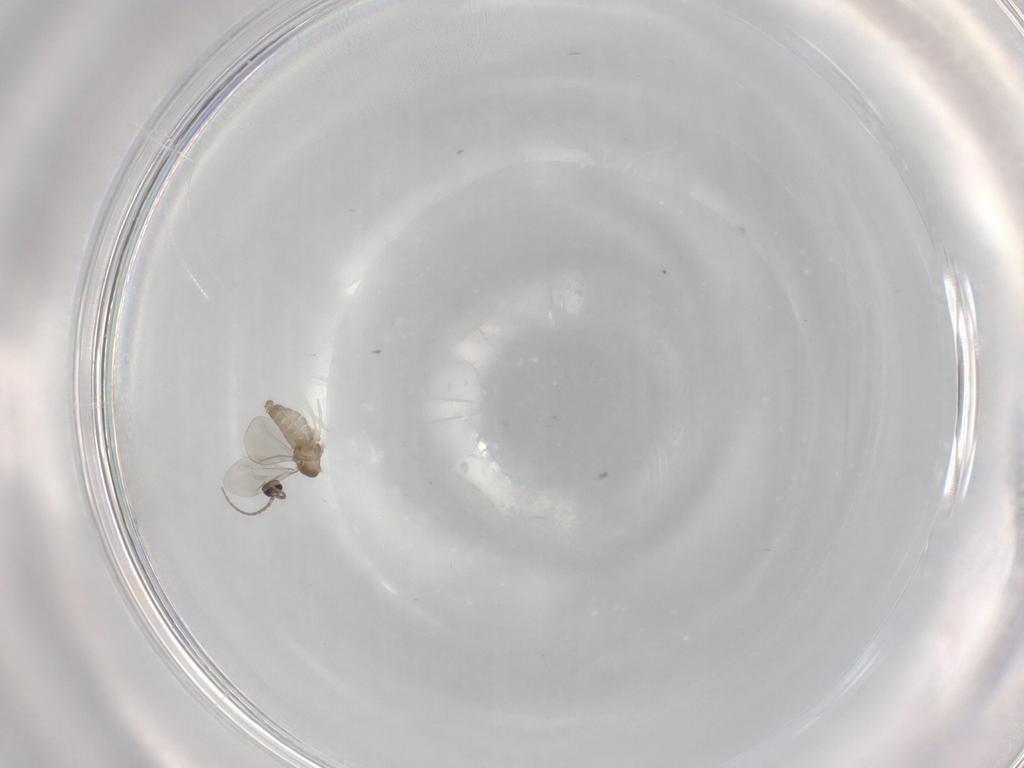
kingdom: Animalia
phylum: Arthropoda
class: Insecta
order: Diptera
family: Cecidomyiidae
